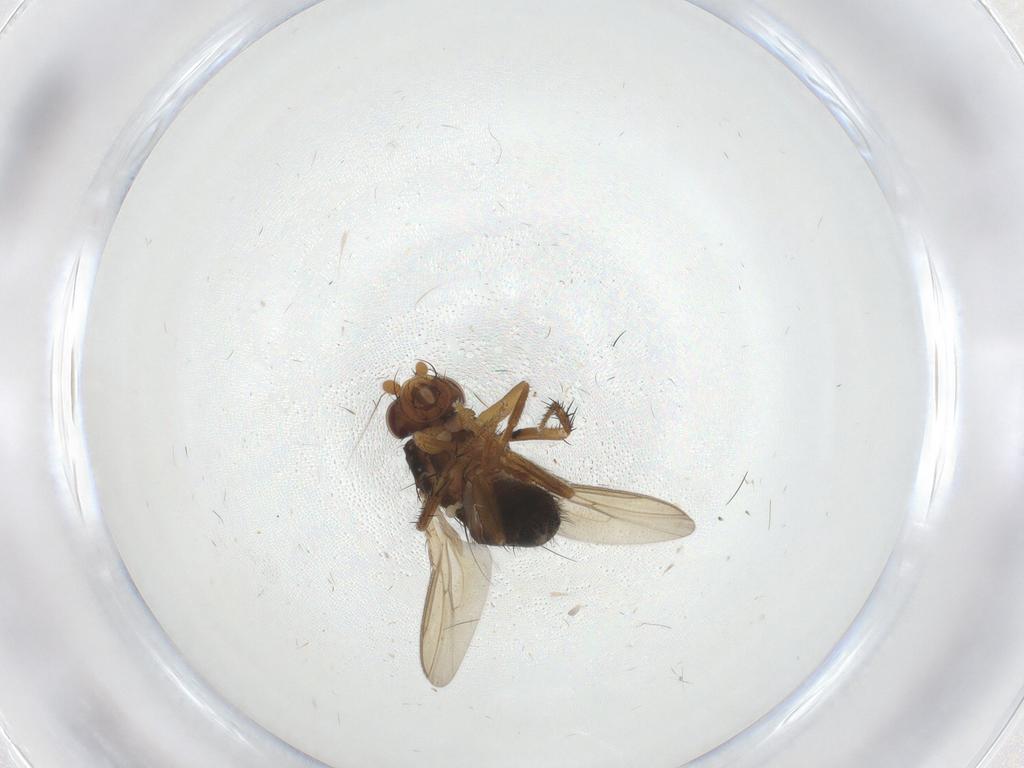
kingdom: Animalia
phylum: Arthropoda
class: Insecta
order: Diptera
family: Sphaeroceridae
